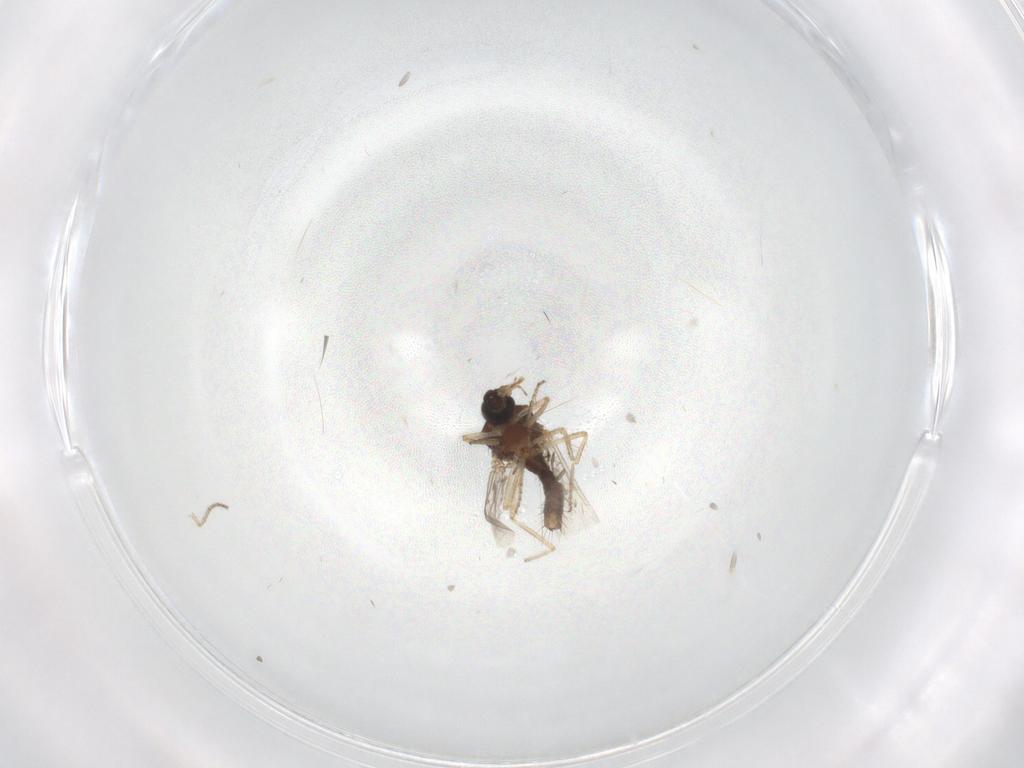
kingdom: Animalia
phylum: Arthropoda
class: Insecta
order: Diptera
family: Ceratopogonidae
